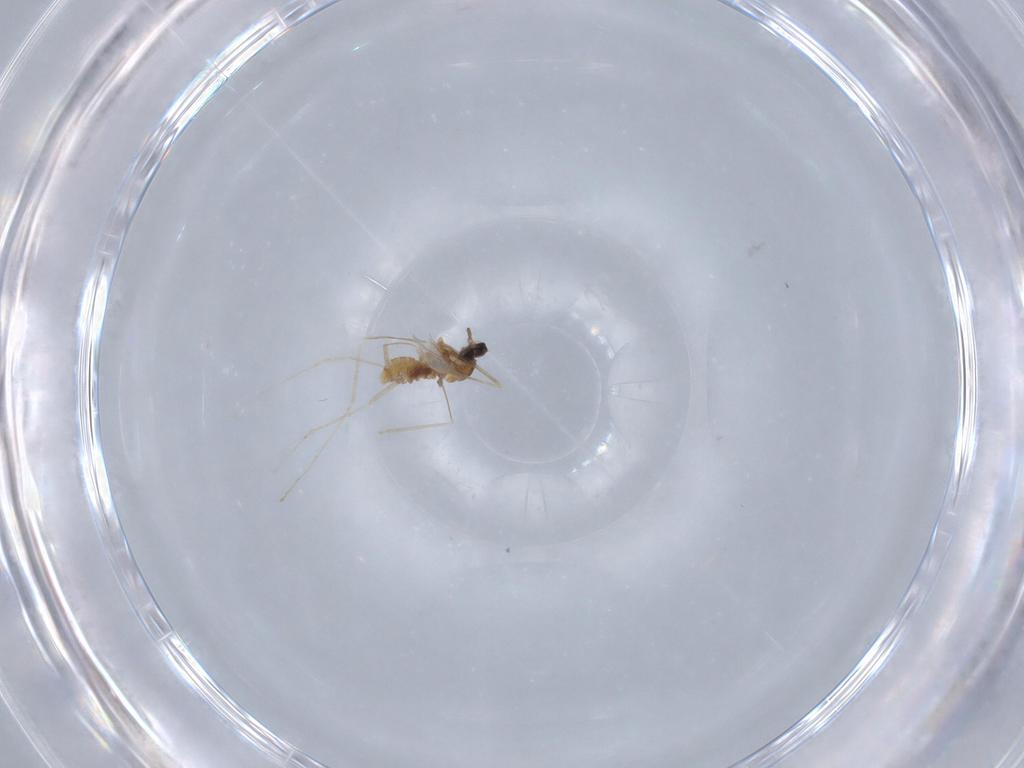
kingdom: Animalia
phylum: Arthropoda
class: Insecta
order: Diptera
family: Cecidomyiidae
